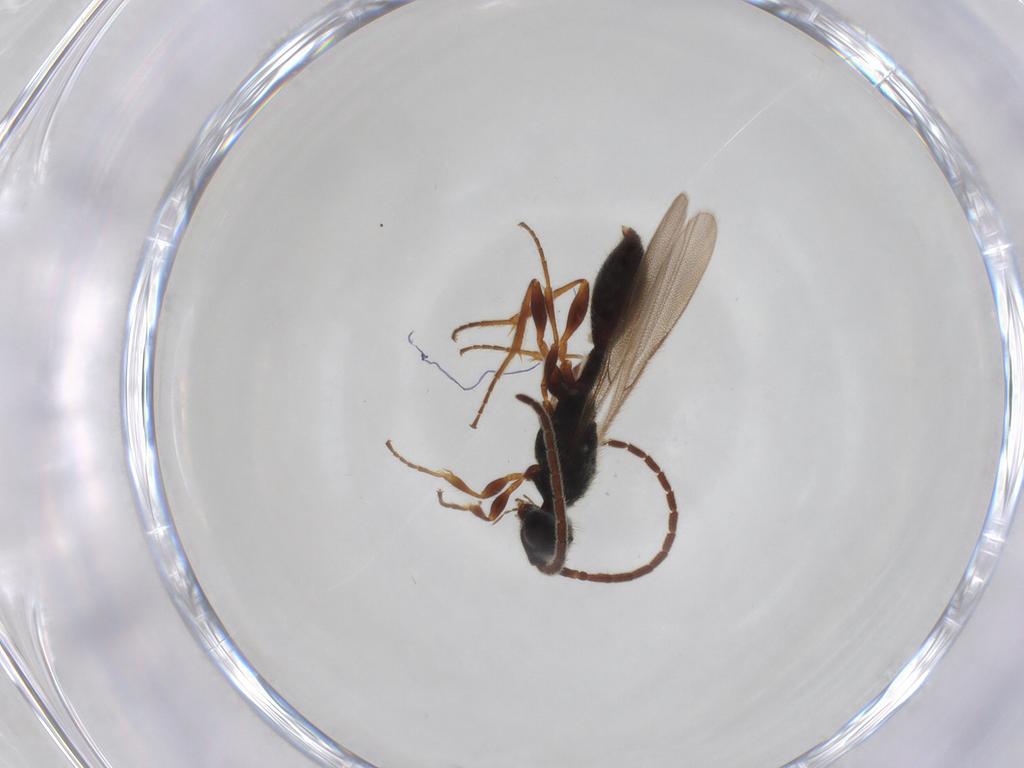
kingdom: Animalia
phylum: Arthropoda
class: Insecta
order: Hymenoptera
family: Diapriidae
